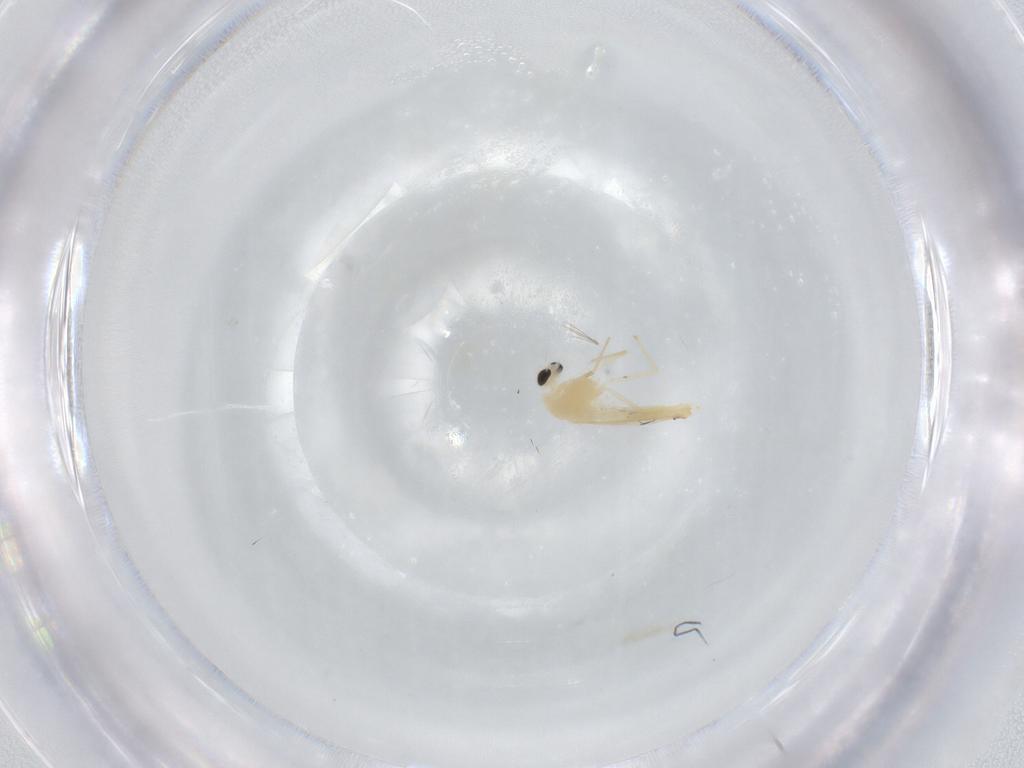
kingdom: Animalia
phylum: Arthropoda
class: Insecta
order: Diptera
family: Chironomidae
